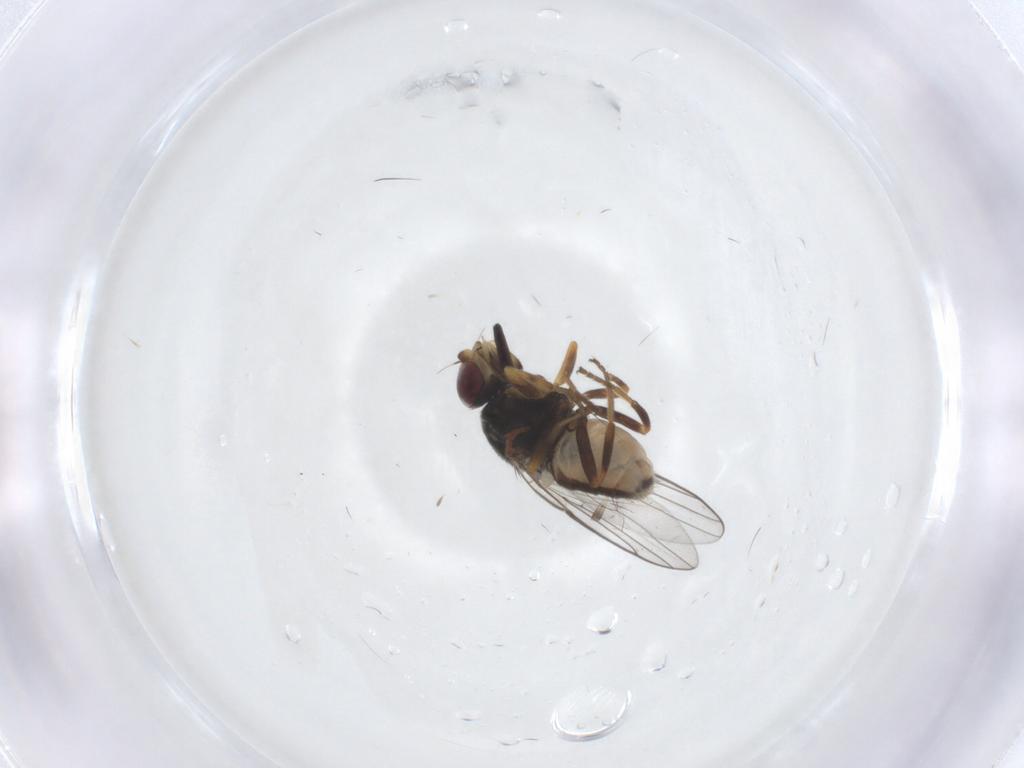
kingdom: Animalia
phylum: Arthropoda
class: Insecta
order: Diptera
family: Chloropidae
